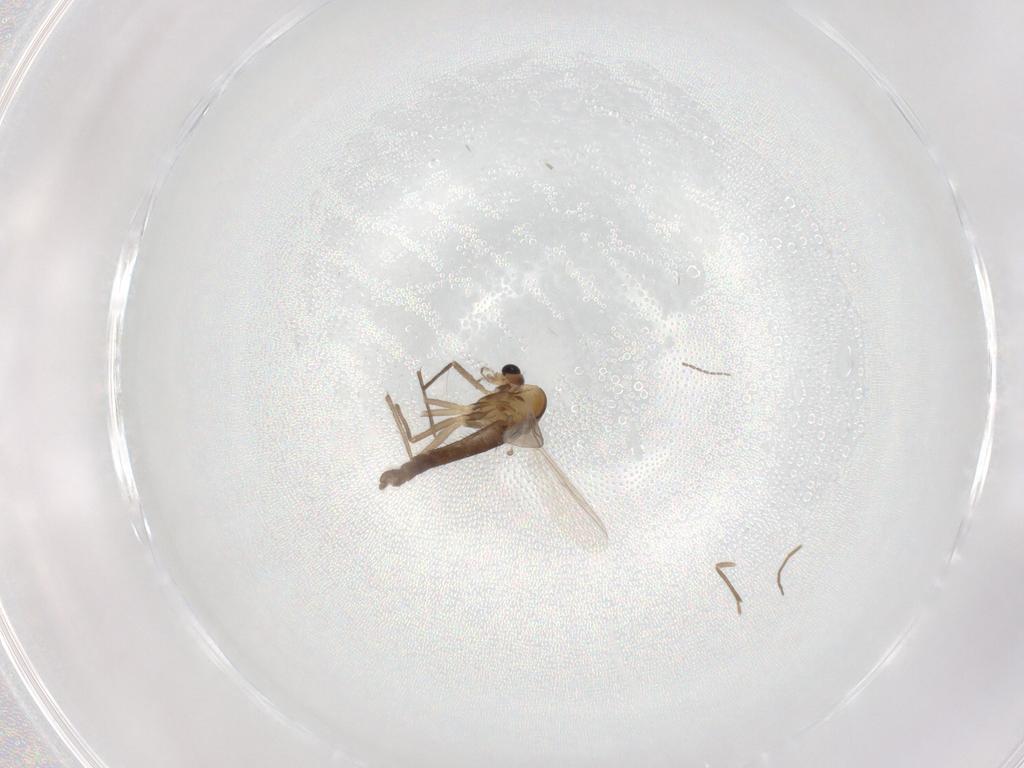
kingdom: Animalia
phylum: Arthropoda
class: Insecta
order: Diptera
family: Chironomidae
